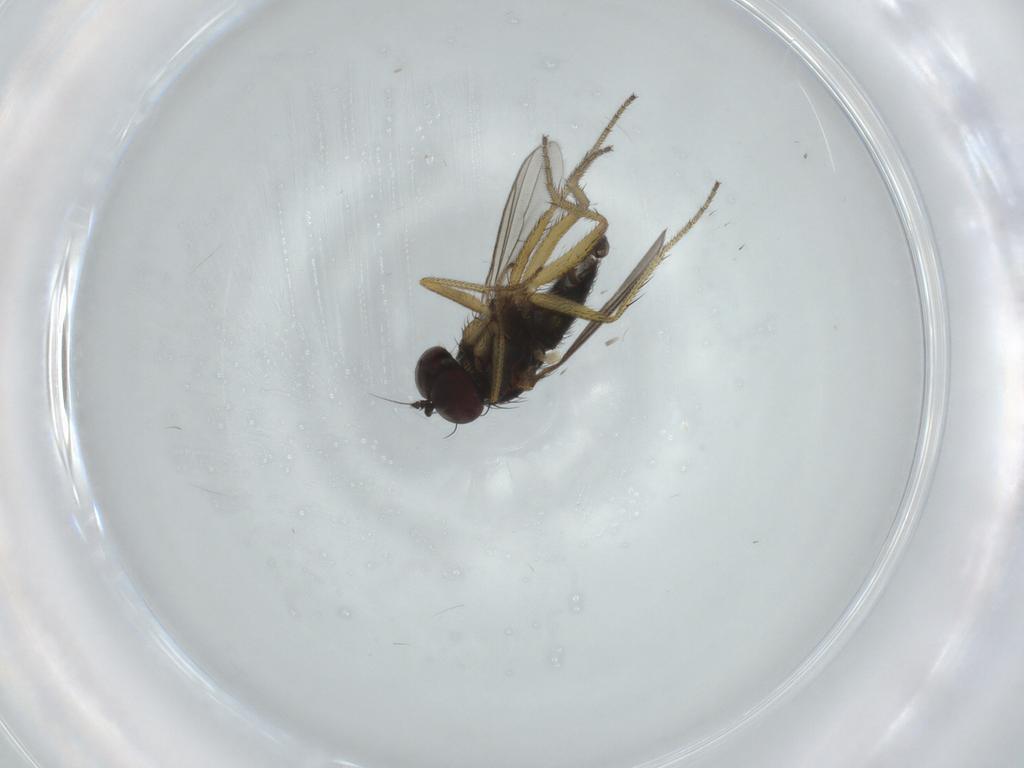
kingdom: Animalia
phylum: Arthropoda
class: Insecta
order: Diptera
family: Dolichopodidae
